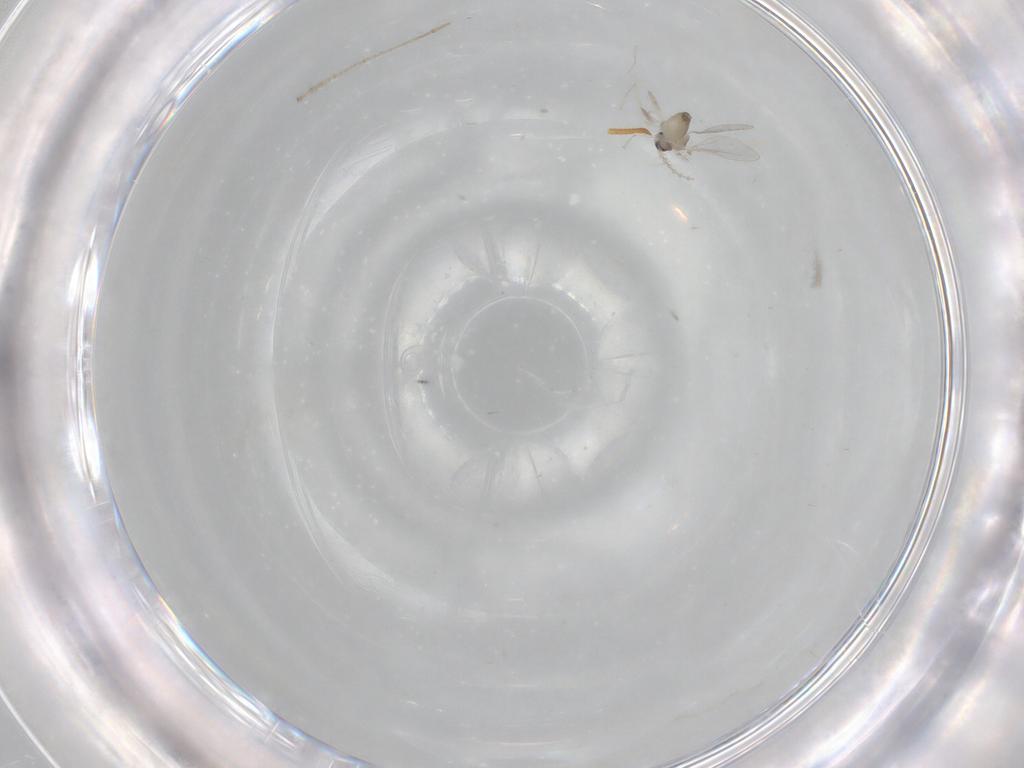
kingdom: Animalia
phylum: Arthropoda
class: Insecta
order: Diptera
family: Cecidomyiidae
